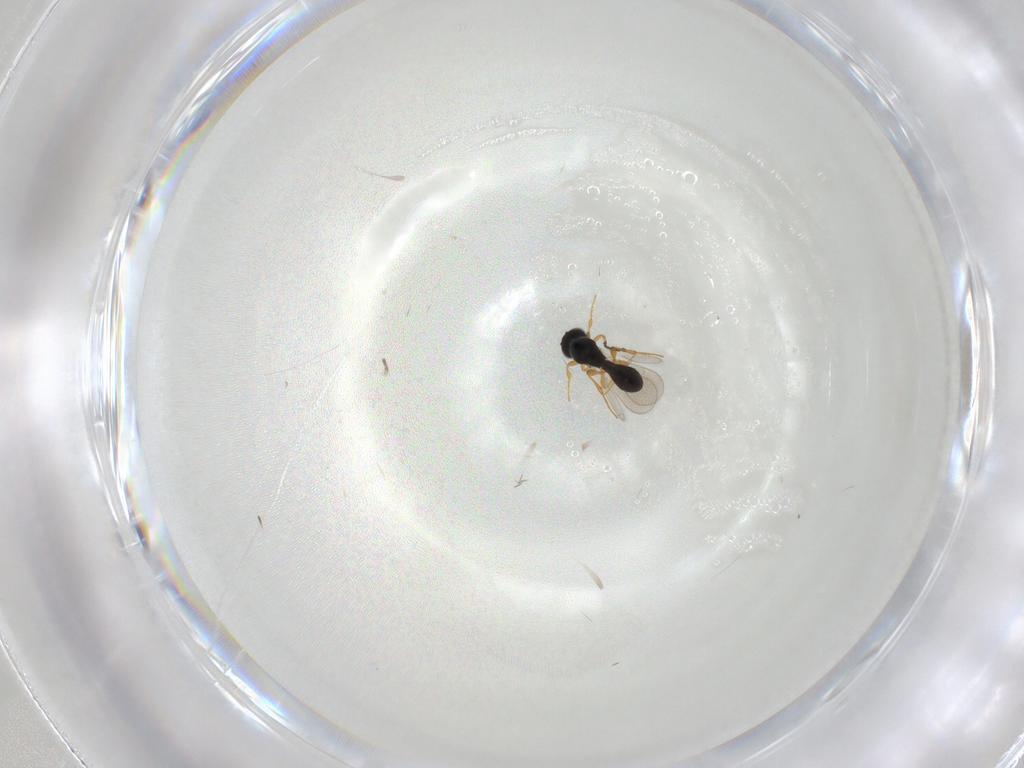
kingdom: Animalia
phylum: Arthropoda
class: Insecta
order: Hymenoptera
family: Platygastridae
